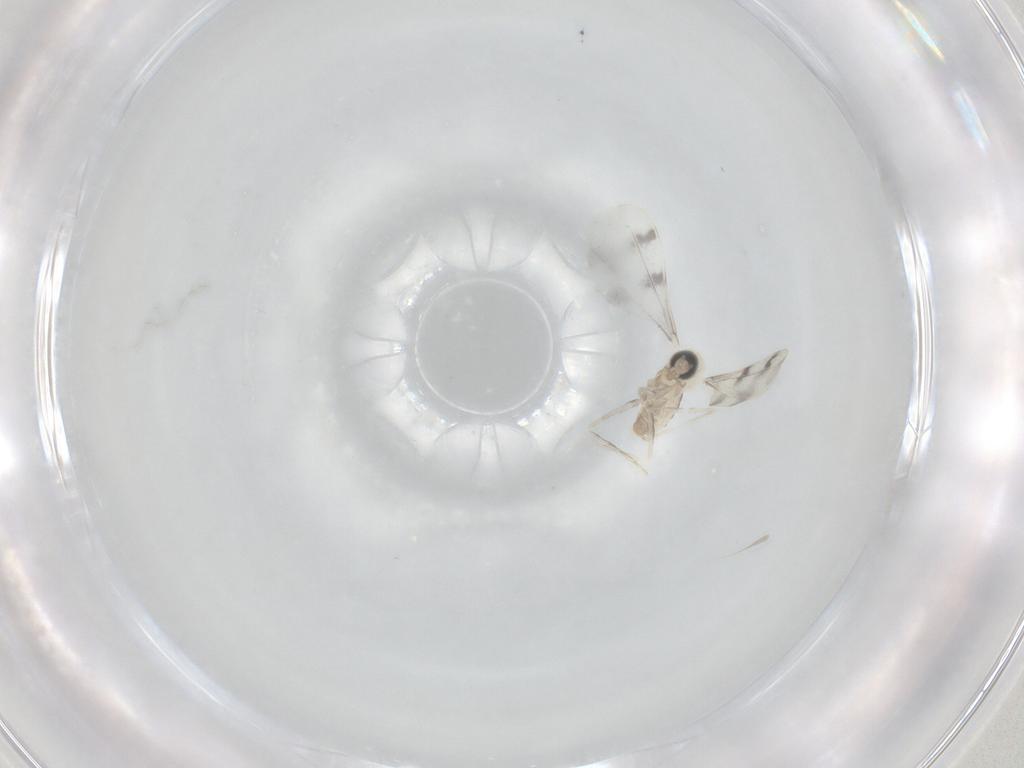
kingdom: Animalia
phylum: Arthropoda
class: Insecta
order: Diptera
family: Cecidomyiidae
